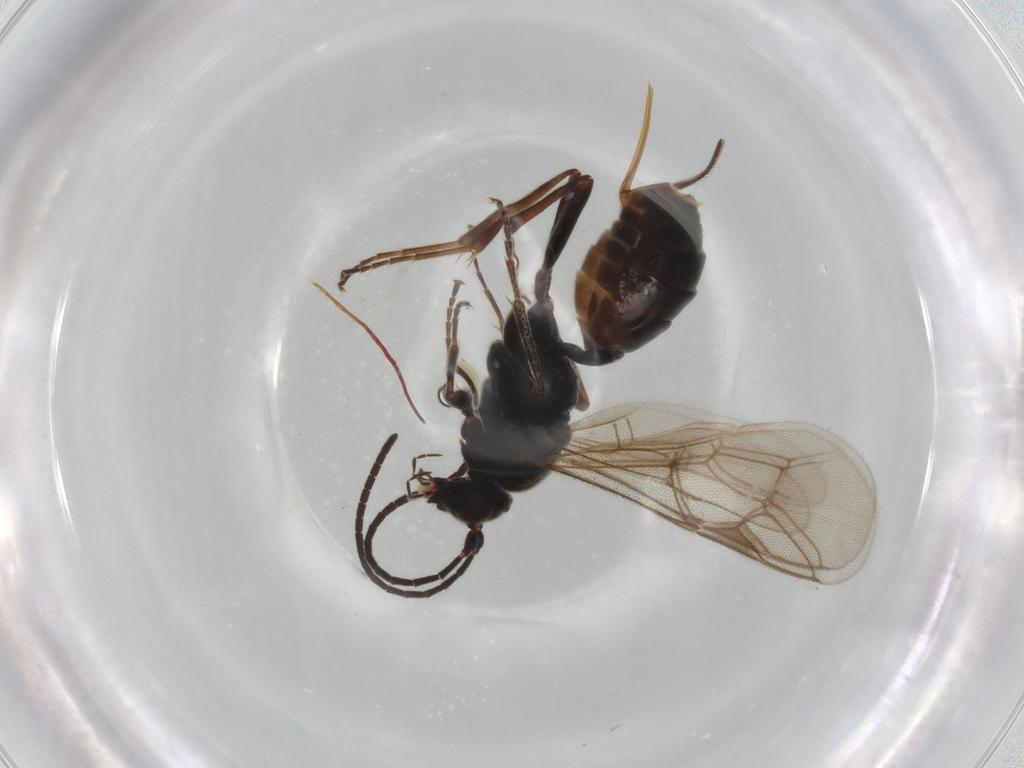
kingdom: Animalia
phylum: Arthropoda
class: Insecta
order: Hymenoptera
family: Ichneumonidae
